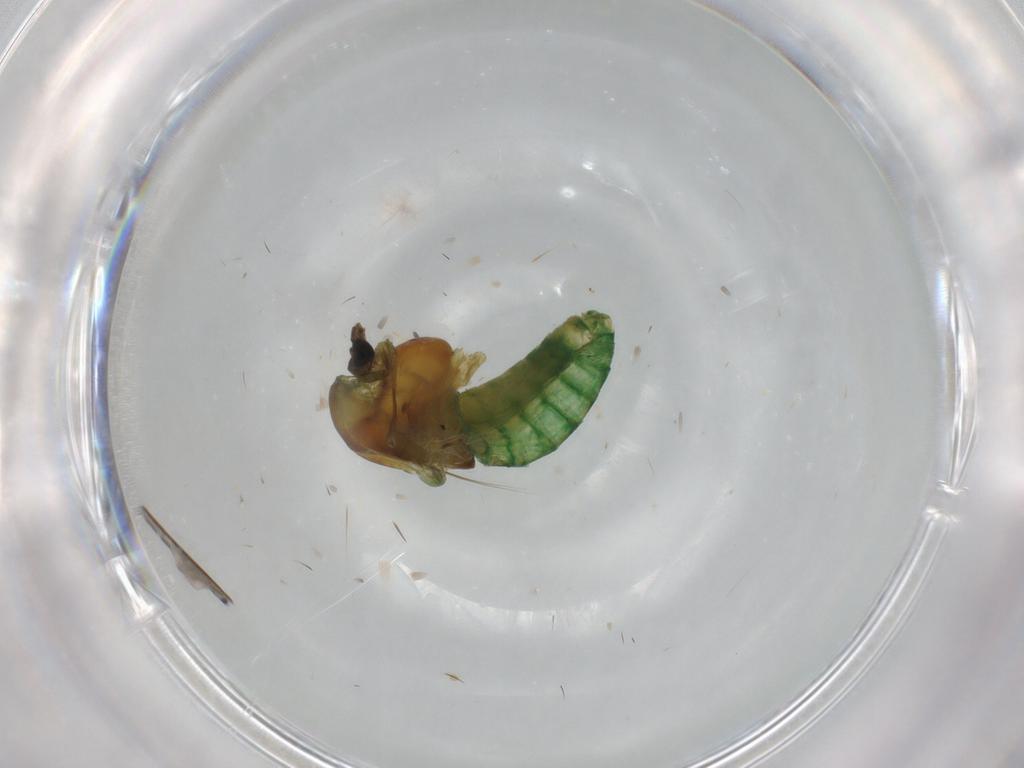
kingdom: Animalia
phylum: Arthropoda
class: Insecta
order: Diptera
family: Chironomidae
